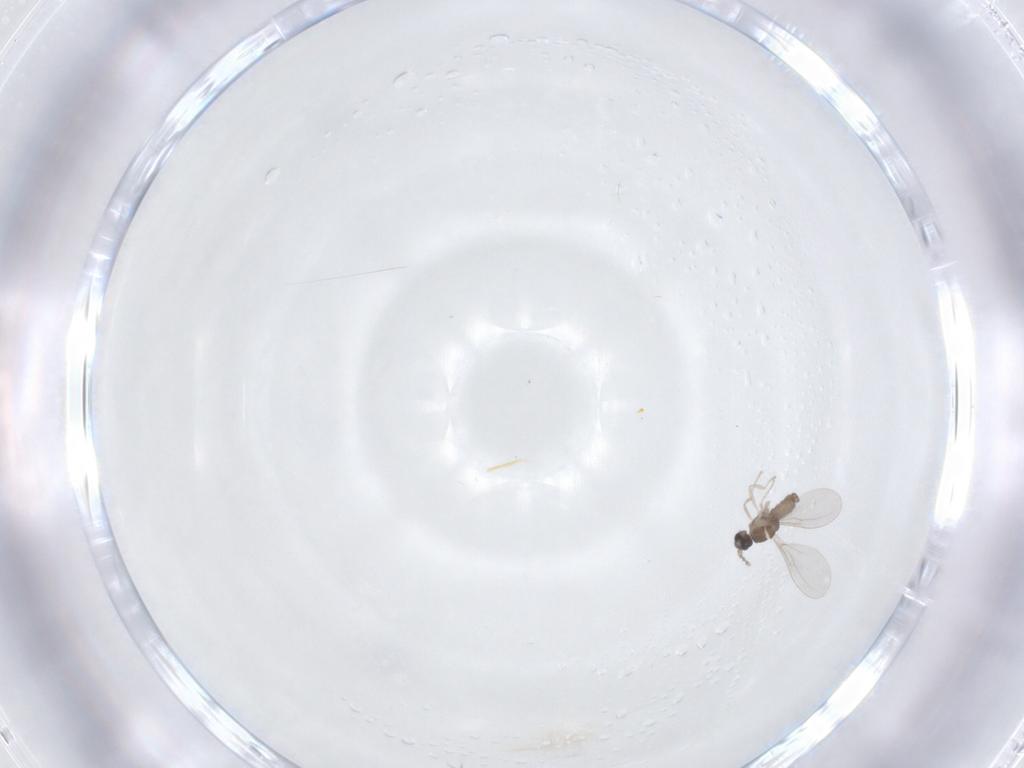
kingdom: Animalia
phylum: Arthropoda
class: Insecta
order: Diptera
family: Cecidomyiidae
